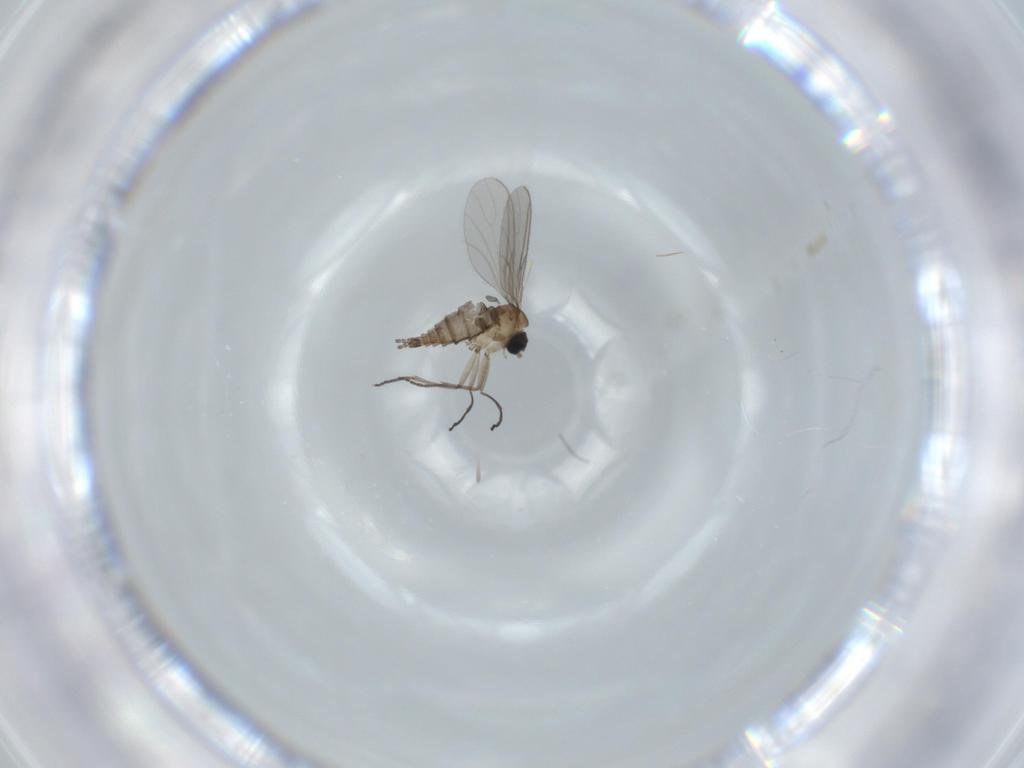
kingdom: Animalia
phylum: Arthropoda
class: Insecta
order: Diptera
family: Sciaridae
